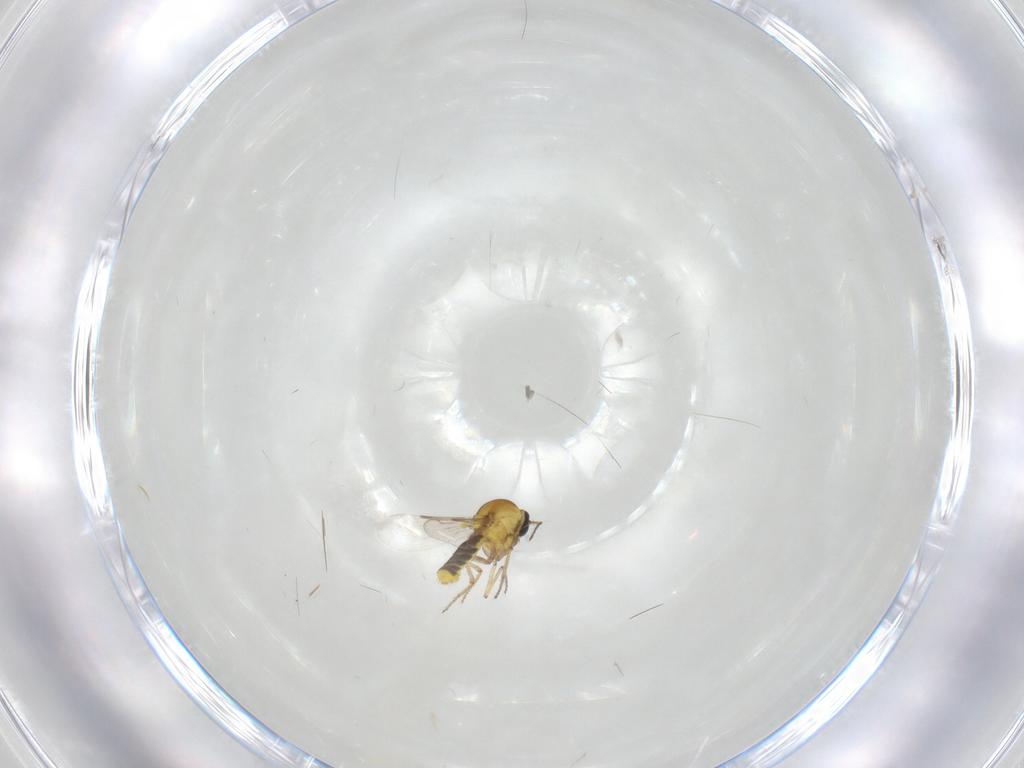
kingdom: Animalia
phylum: Arthropoda
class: Insecta
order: Diptera
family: Ceratopogonidae
